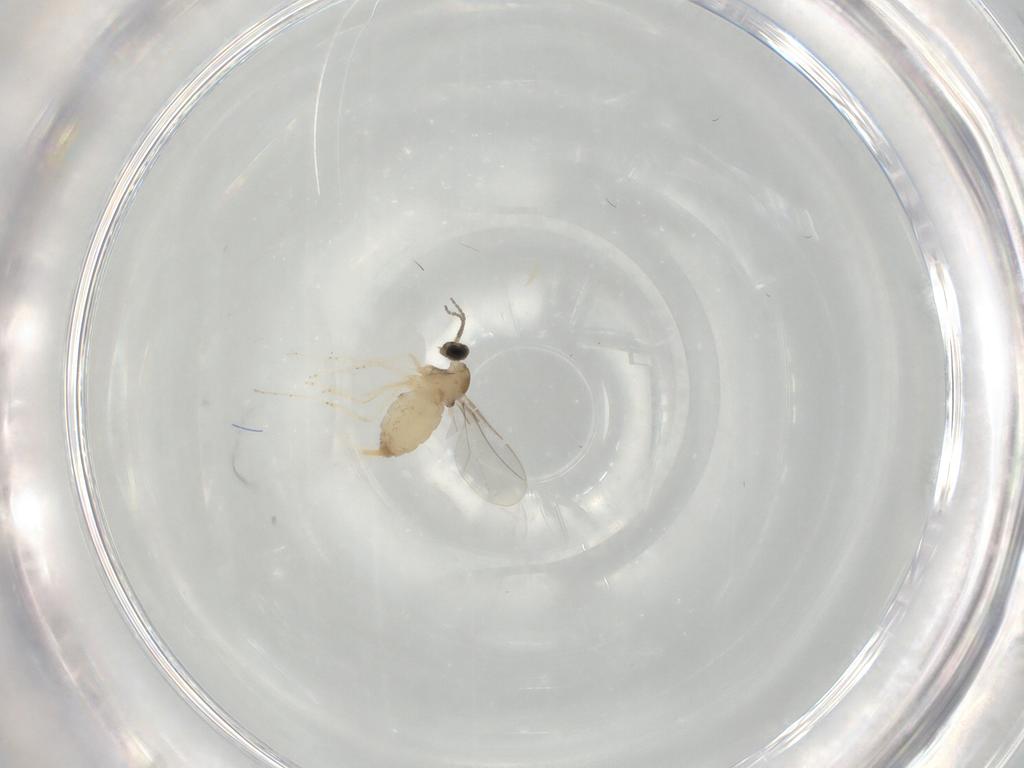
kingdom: Animalia
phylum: Arthropoda
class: Insecta
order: Diptera
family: Cecidomyiidae
